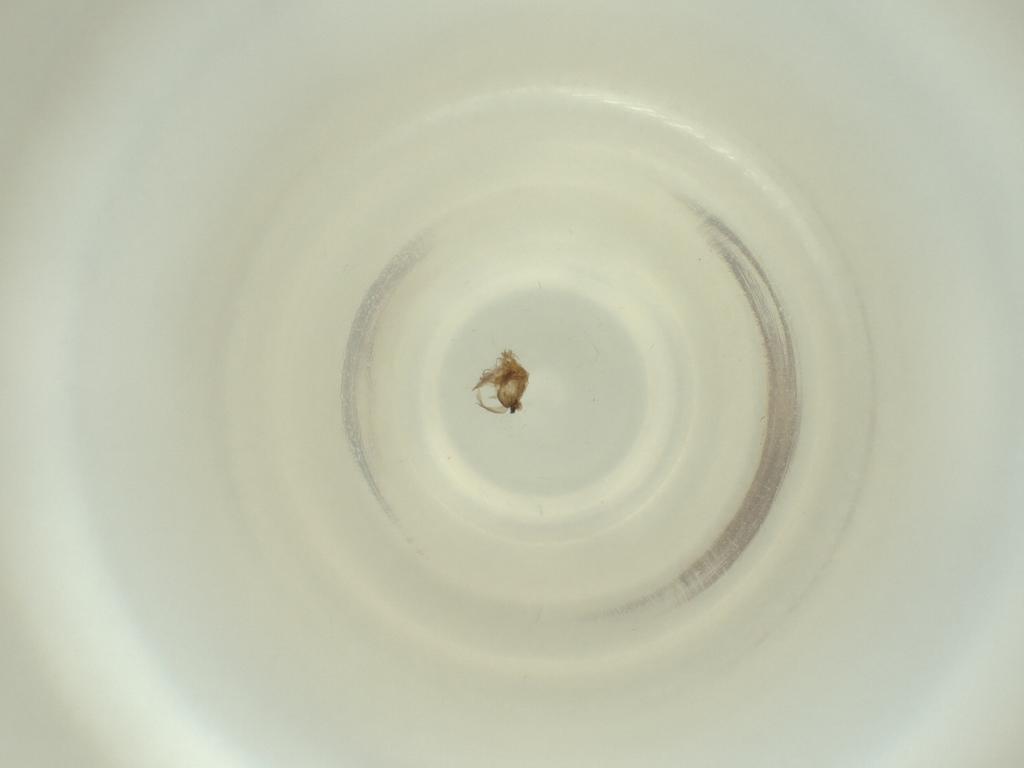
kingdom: Animalia
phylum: Arthropoda
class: Insecta
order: Diptera
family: Cecidomyiidae
